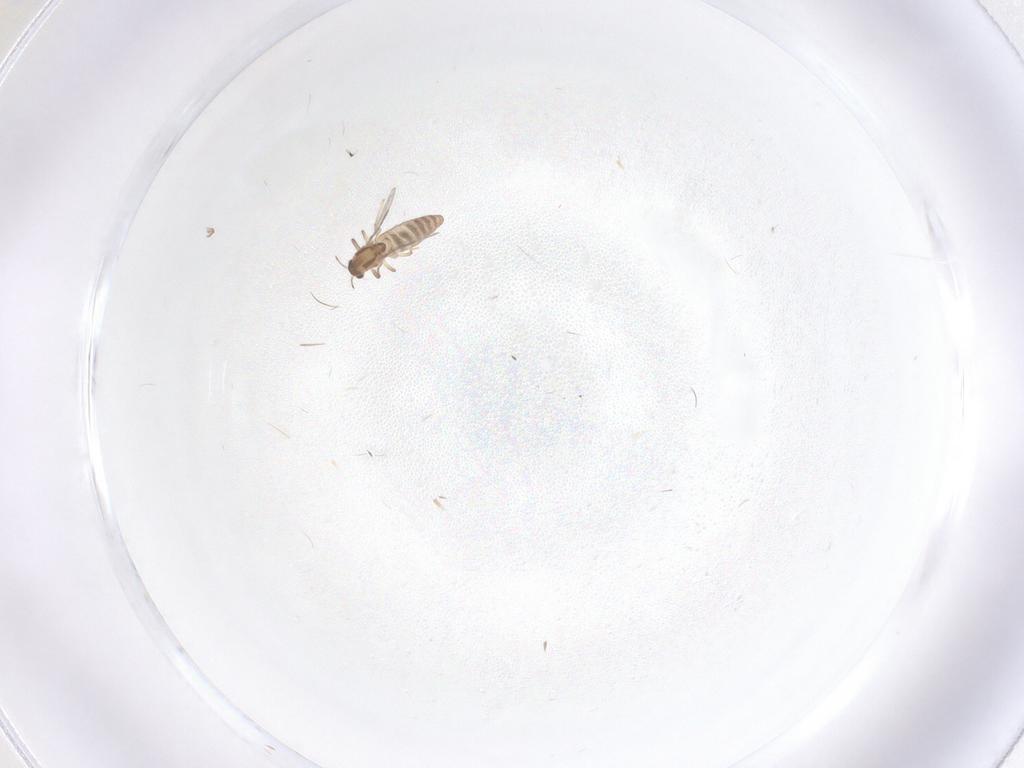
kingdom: Animalia
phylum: Arthropoda
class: Insecta
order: Diptera
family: Chironomidae
